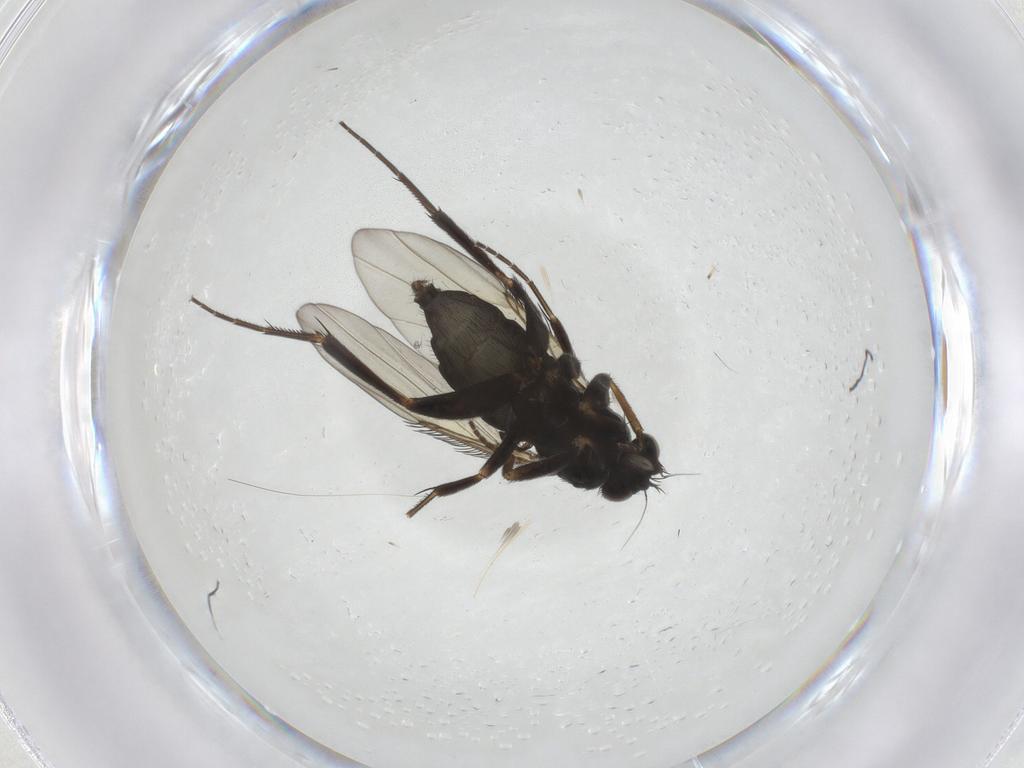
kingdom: Animalia
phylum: Arthropoda
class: Insecta
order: Diptera
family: Phoridae
